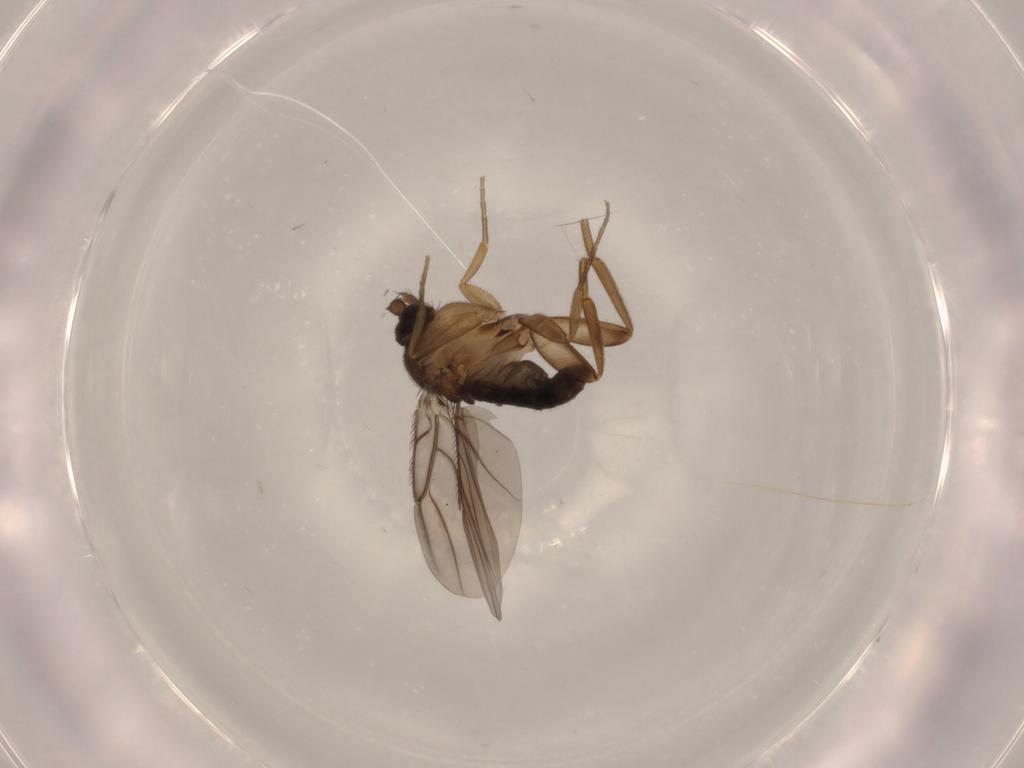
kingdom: Animalia
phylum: Arthropoda
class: Insecta
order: Diptera
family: Phoridae
